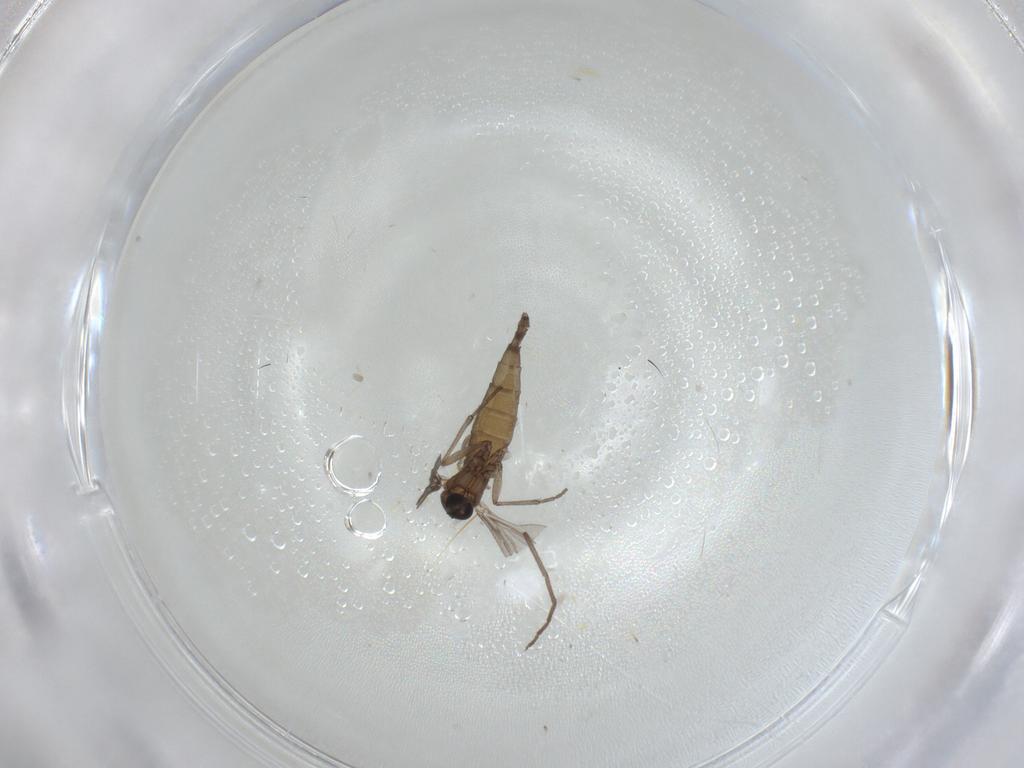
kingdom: Animalia
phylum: Arthropoda
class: Insecta
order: Diptera
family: Sciaridae
